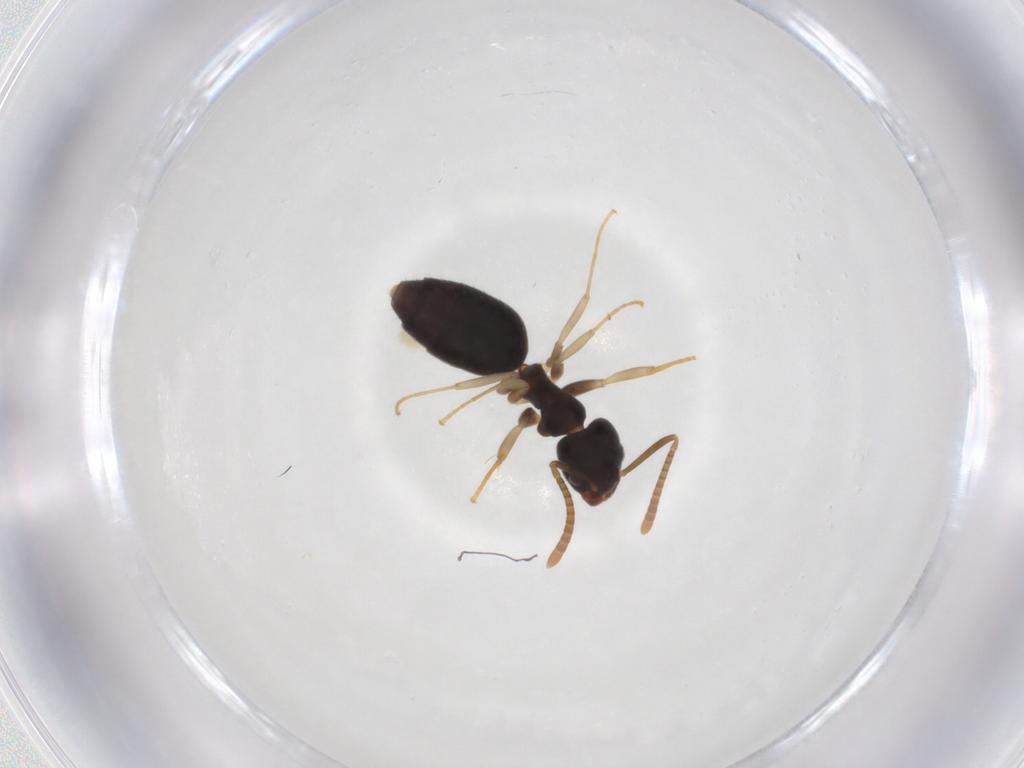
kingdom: Animalia
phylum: Arthropoda
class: Insecta
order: Hymenoptera
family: Formicidae
